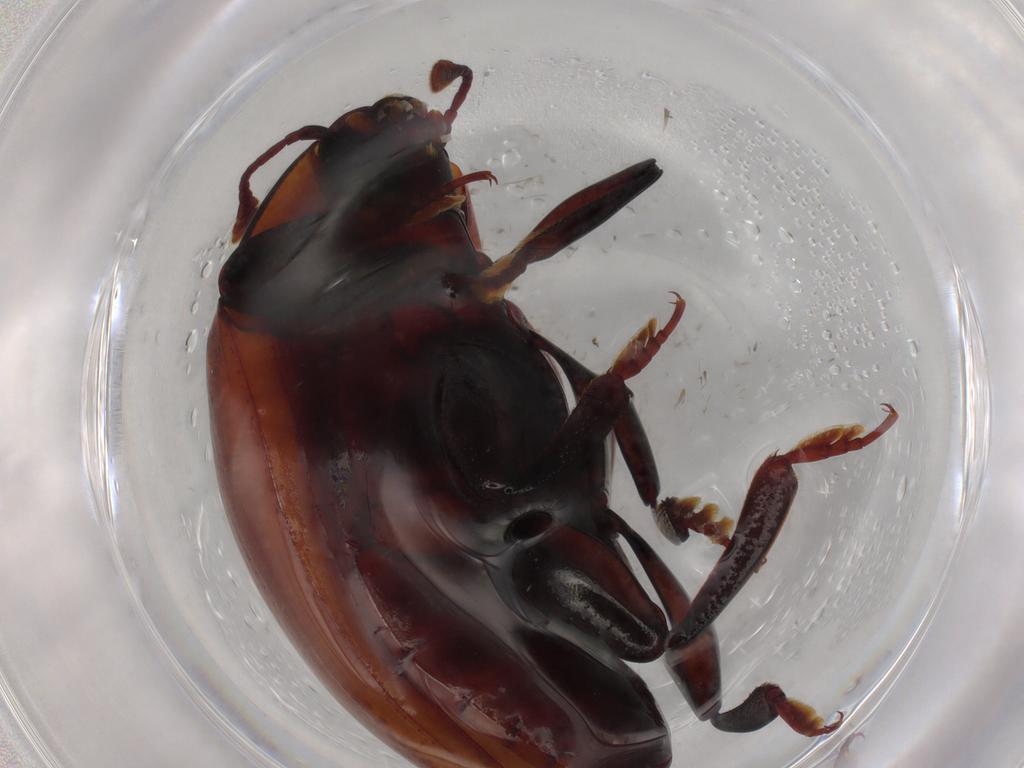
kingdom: Animalia
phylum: Arthropoda
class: Insecta
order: Coleoptera
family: Zopheridae
